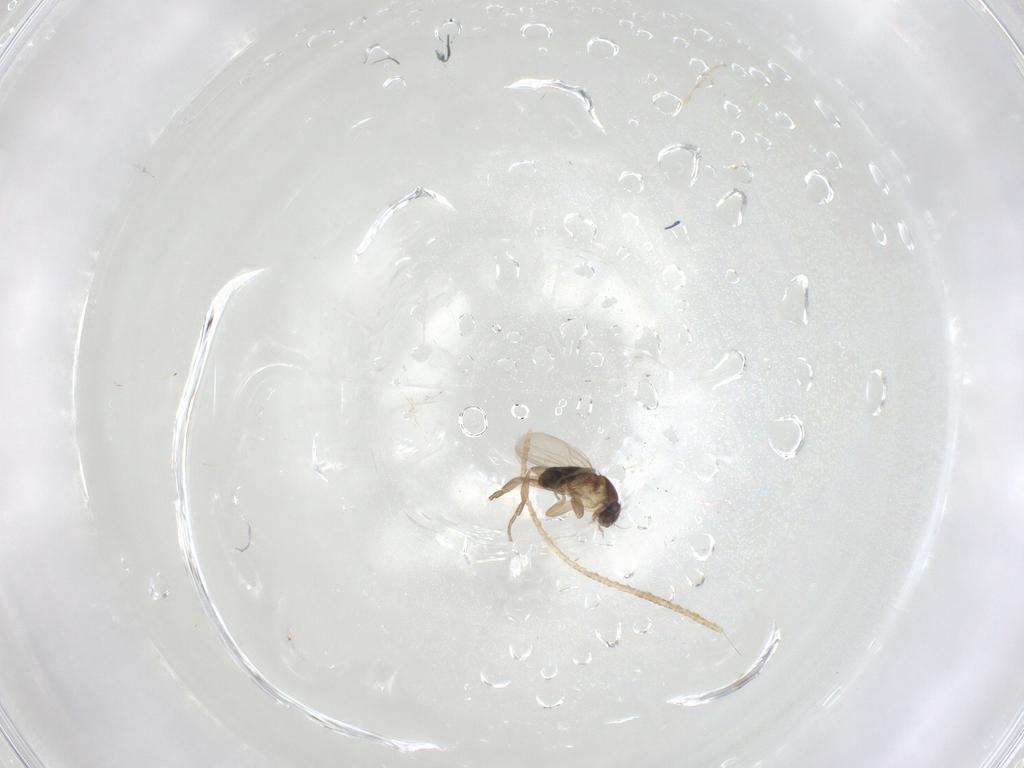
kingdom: Animalia
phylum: Arthropoda
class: Insecta
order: Diptera
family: Phoridae
